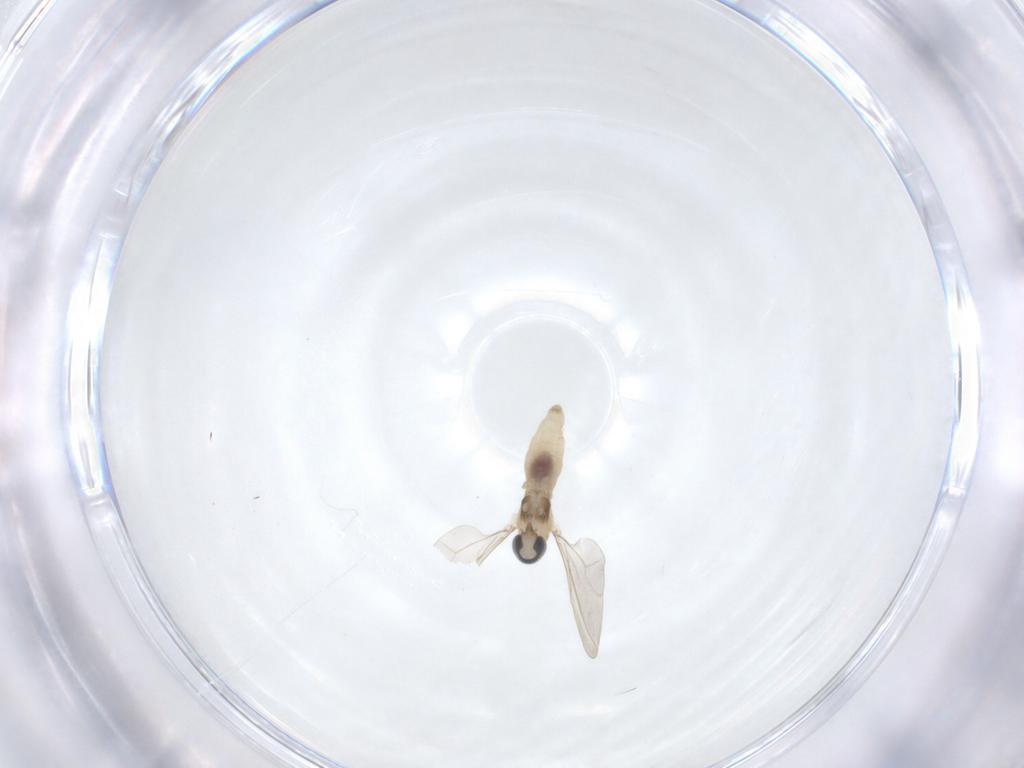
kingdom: Animalia
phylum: Arthropoda
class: Insecta
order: Diptera
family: Cecidomyiidae
